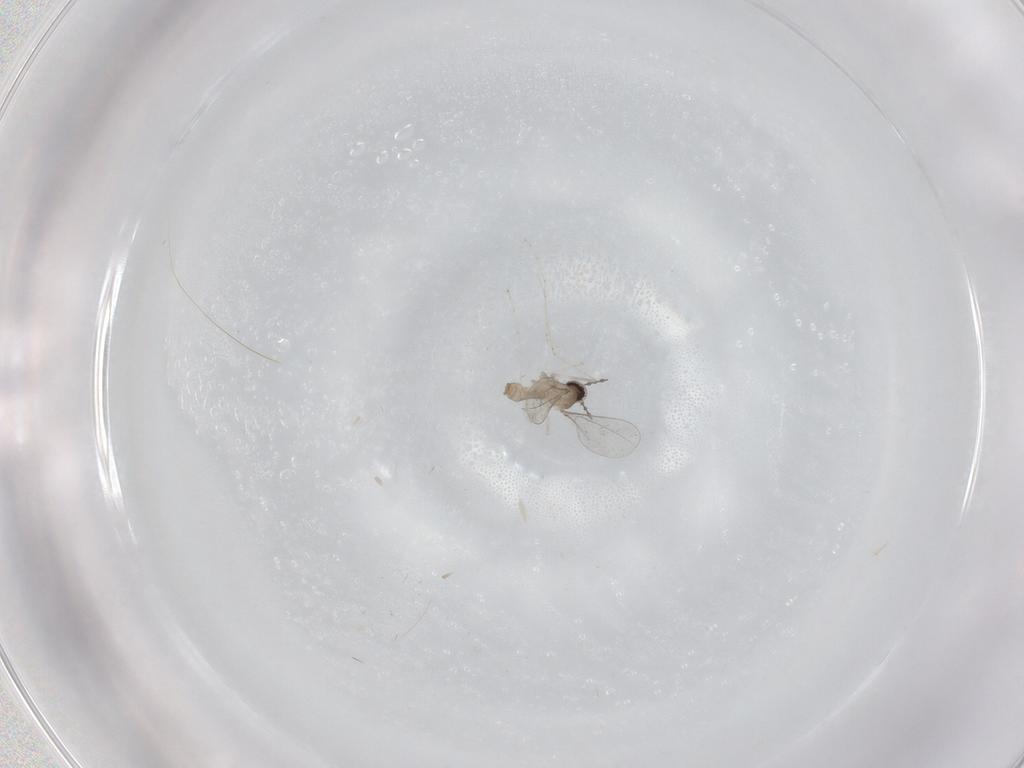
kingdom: Animalia
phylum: Arthropoda
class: Insecta
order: Diptera
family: Cecidomyiidae
